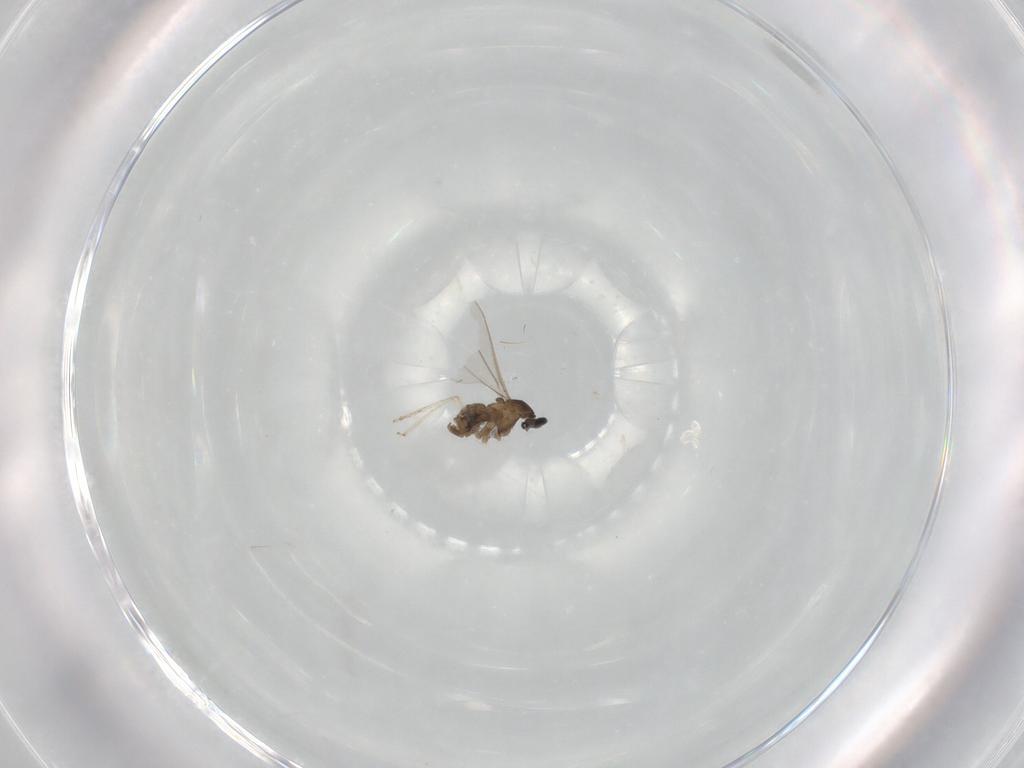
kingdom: Animalia
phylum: Arthropoda
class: Insecta
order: Diptera
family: Cecidomyiidae
